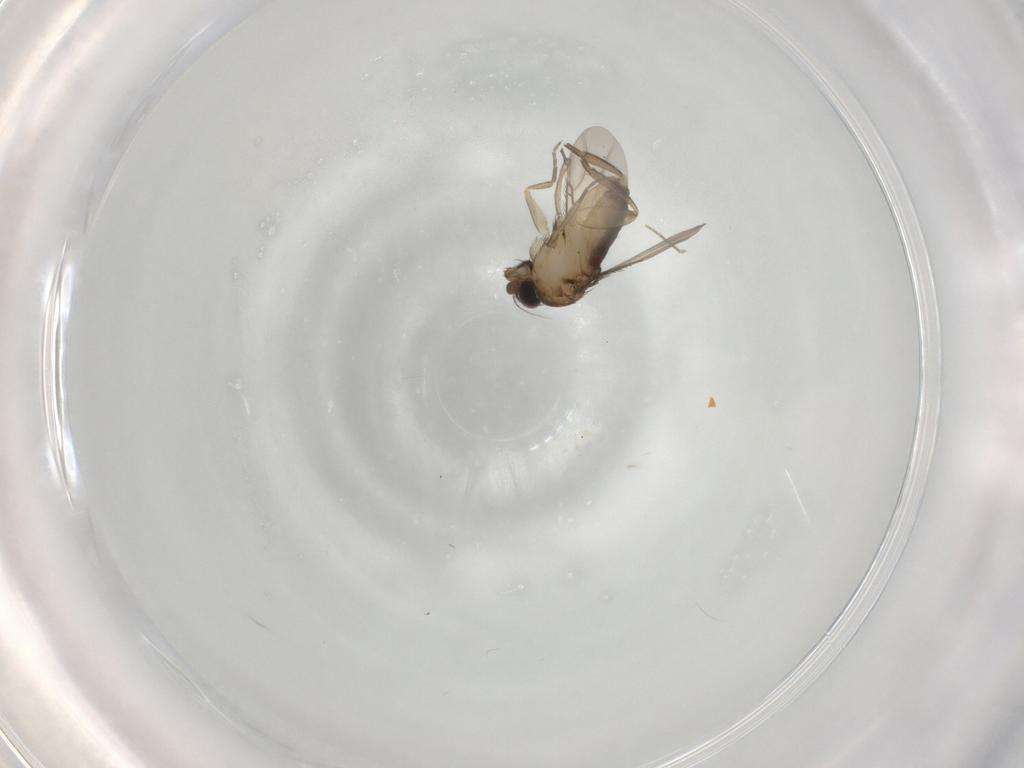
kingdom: Animalia
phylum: Arthropoda
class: Insecta
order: Diptera
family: Phoridae
